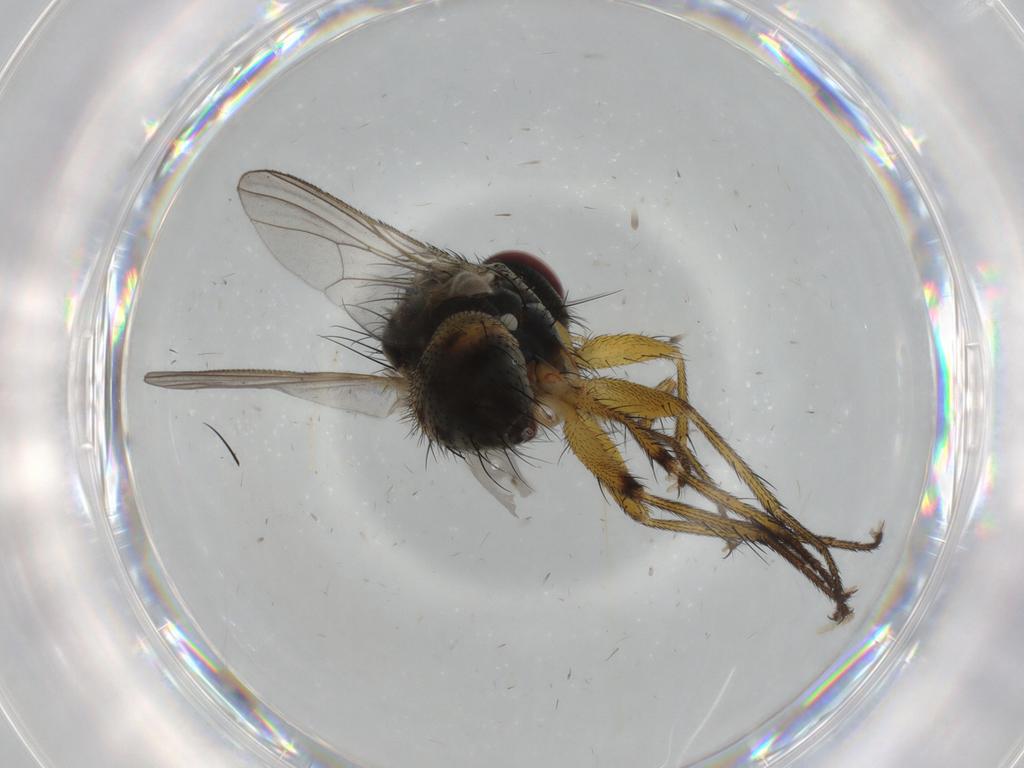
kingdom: Animalia
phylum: Arthropoda
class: Insecta
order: Diptera
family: Muscidae
